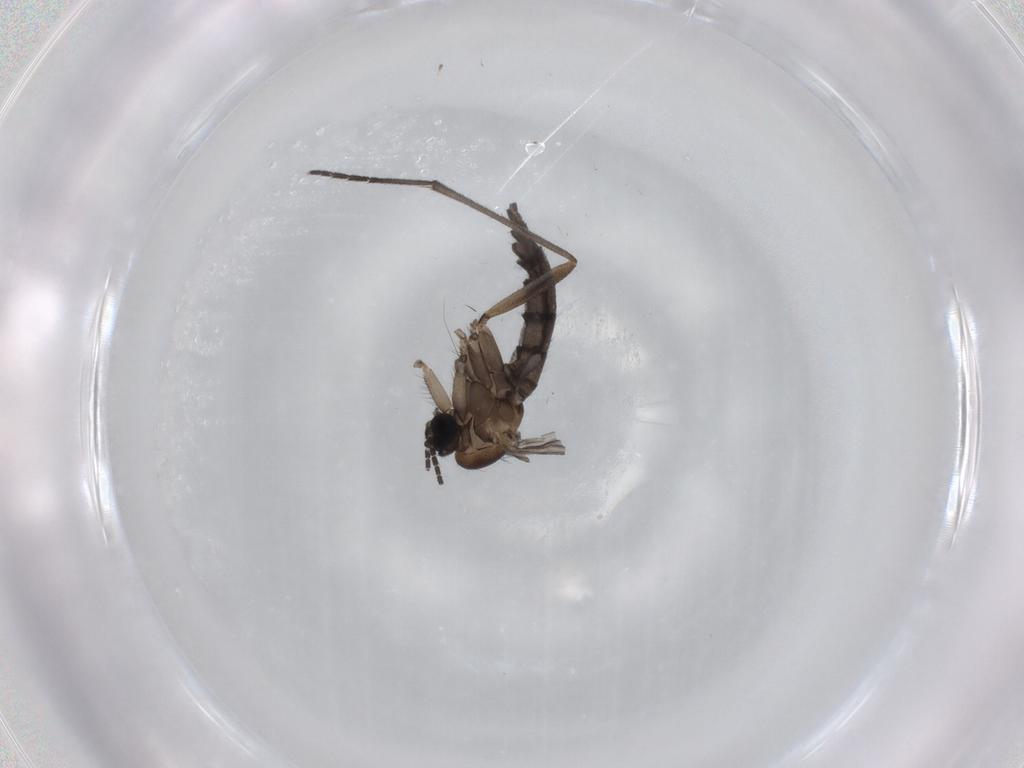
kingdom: Animalia
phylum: Arthropoda
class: Insecta
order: Diptera
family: Sciaridae
